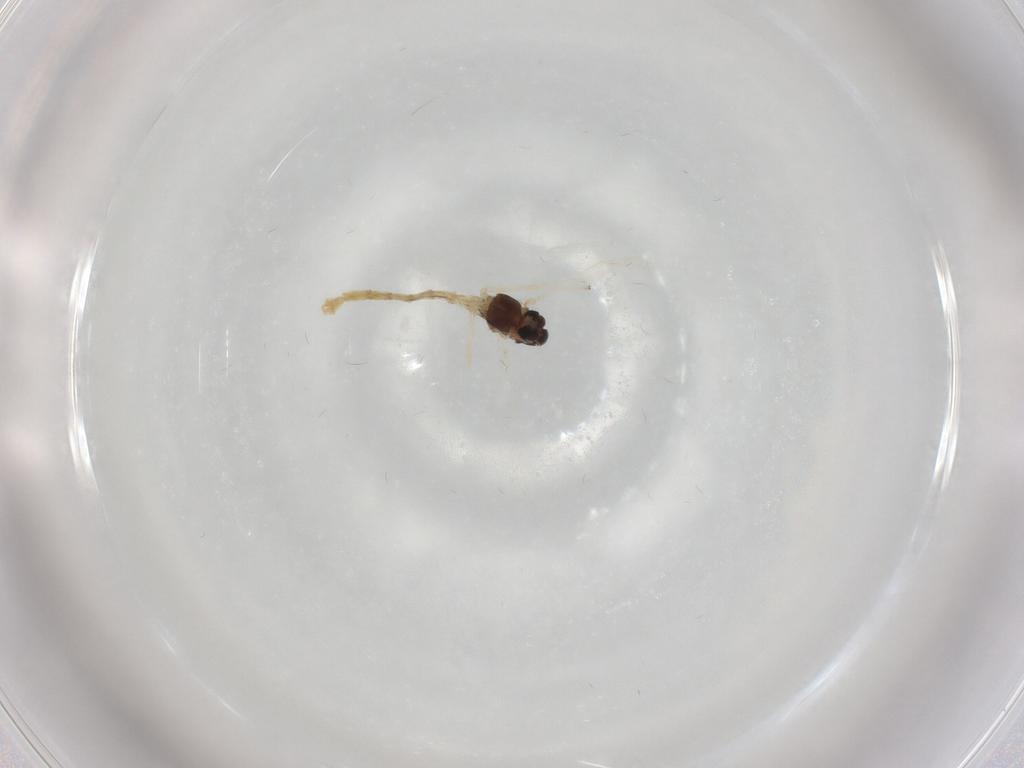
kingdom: Animalia
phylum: Arthropoda
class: Insecta
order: Diptera
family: Chironomidae
